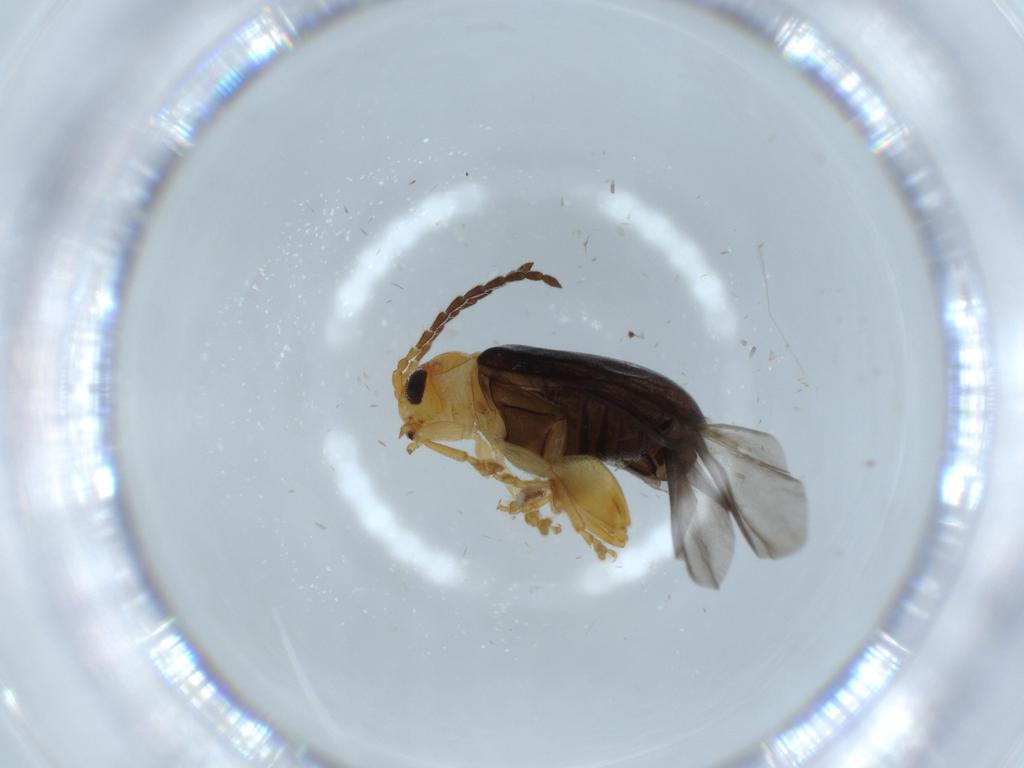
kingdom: Animalia
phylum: Arthropoda
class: Insecta
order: Coleoptera
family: Chrysomelidae
